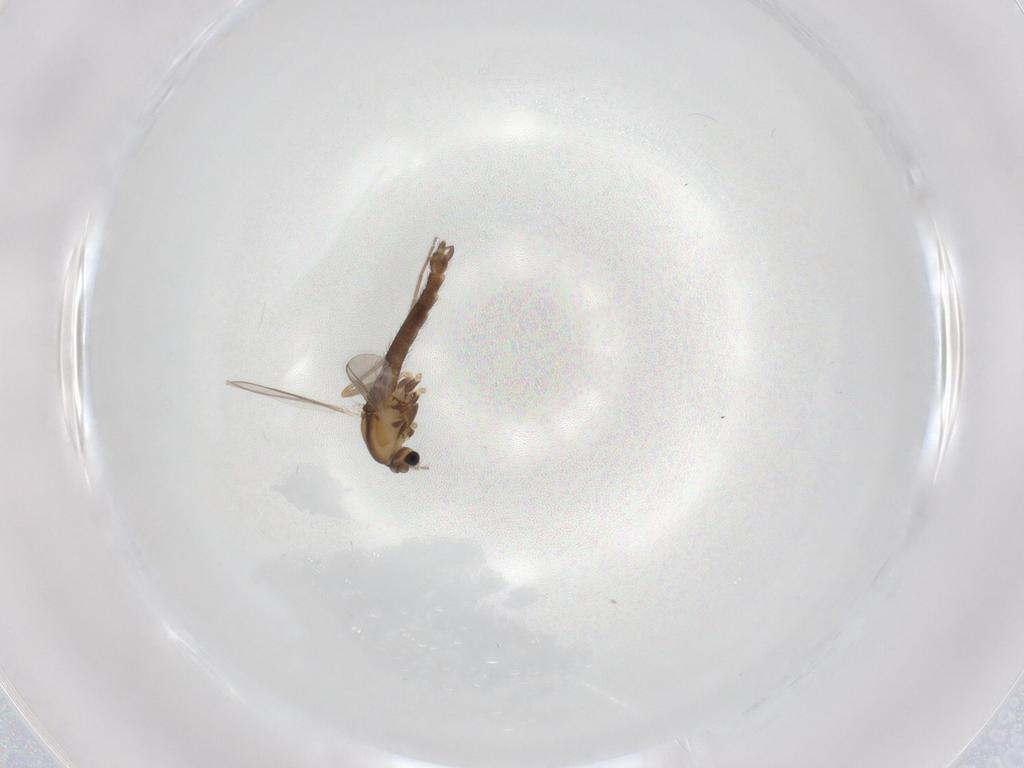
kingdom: Animalia
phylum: Arthropoda
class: Insecta
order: Diptera
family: Chironomidae
